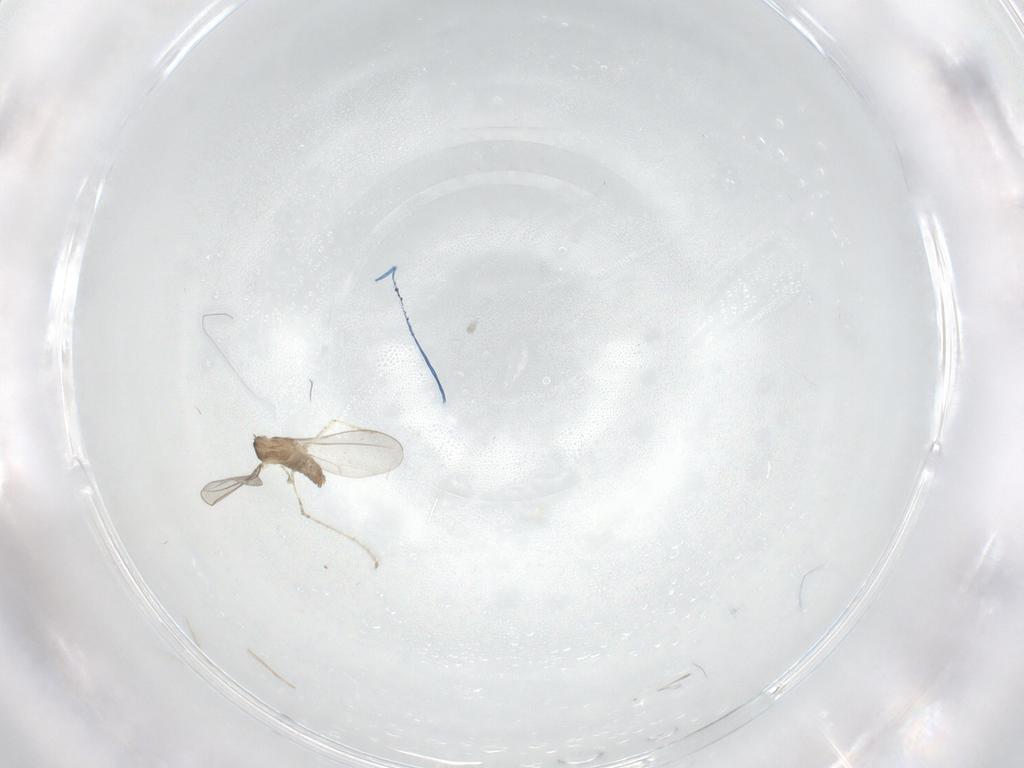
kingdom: Animalia
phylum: Arthropoda
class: Insecta
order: Diptera
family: Cecidomyiidae
